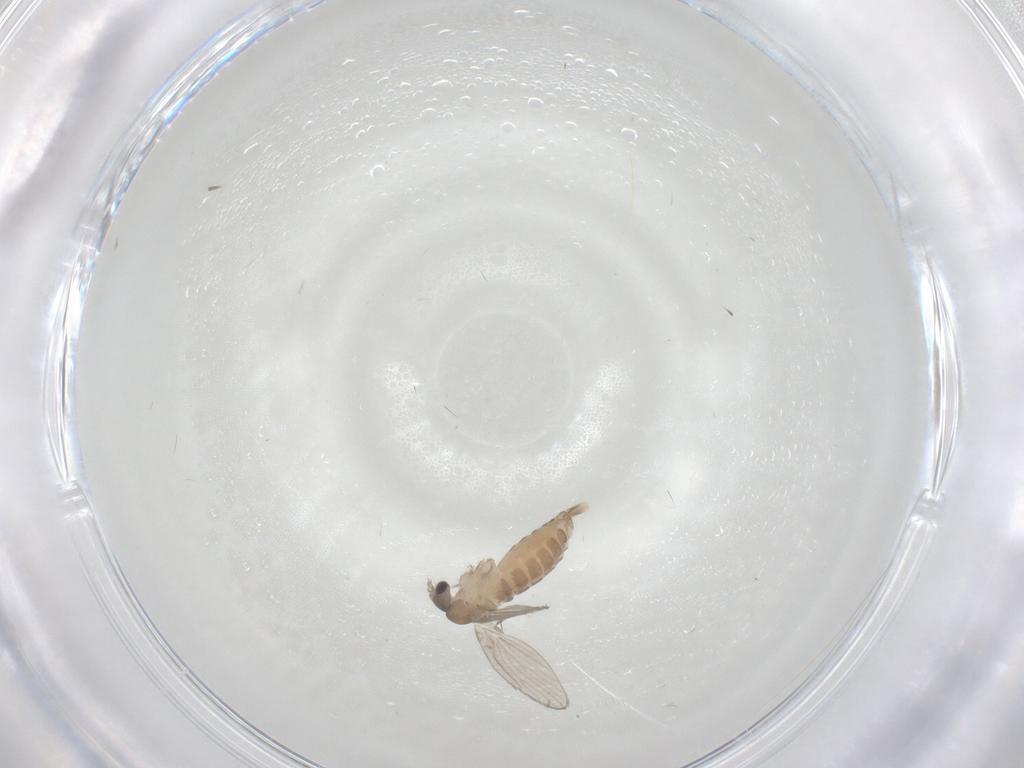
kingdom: Animalia
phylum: Arthropoda
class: Insecta
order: Diptera
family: Psychodidae
